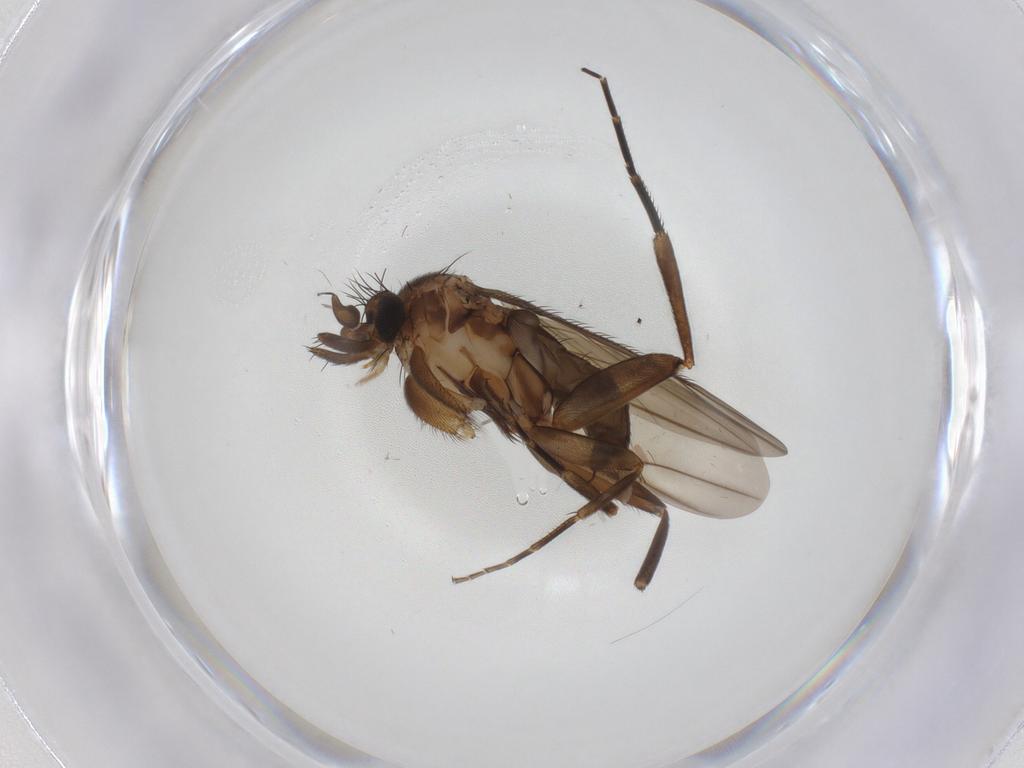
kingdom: Animalia
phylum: Arthropoda
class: Insecta
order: Diptera
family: Phoridae
